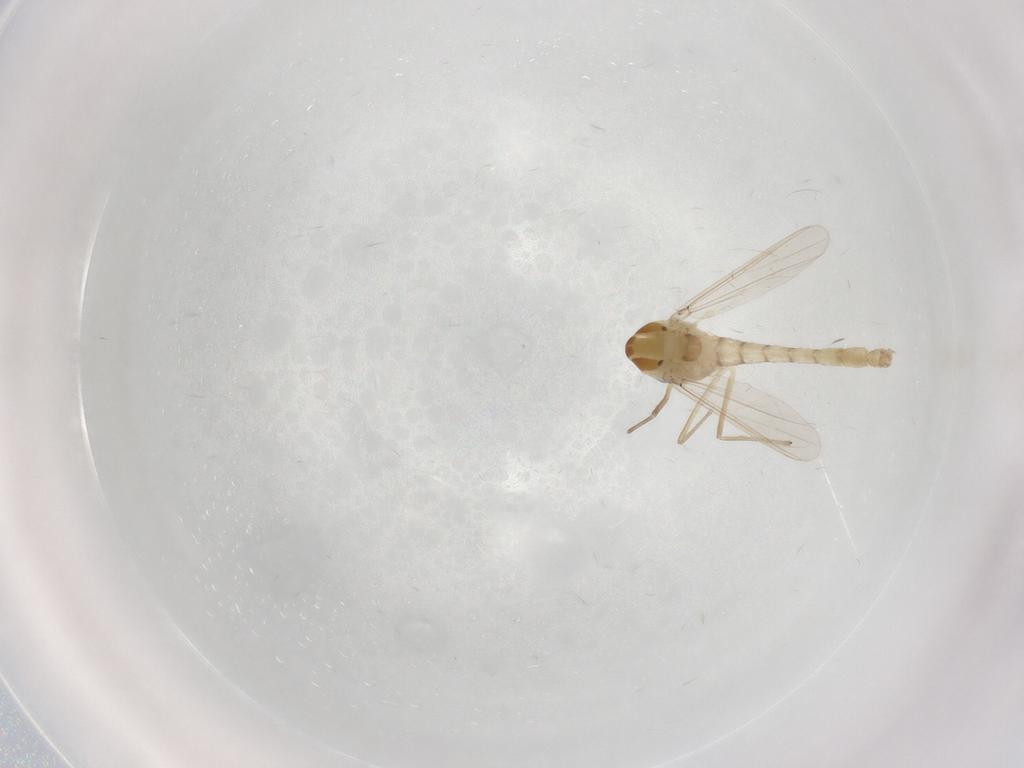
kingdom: Animalia
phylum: Arthropoda
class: Insecta
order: Diptera
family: Chironomidae
